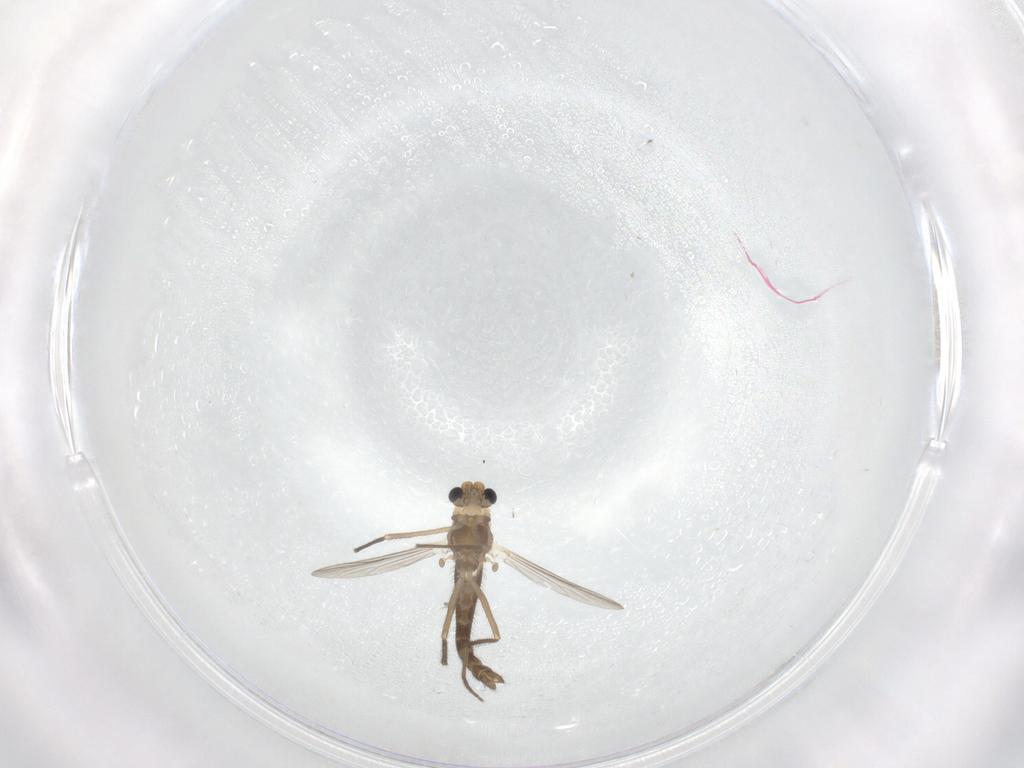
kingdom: Animalia
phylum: Arthropoda
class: Insecta
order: Diptera
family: Chironomidae
